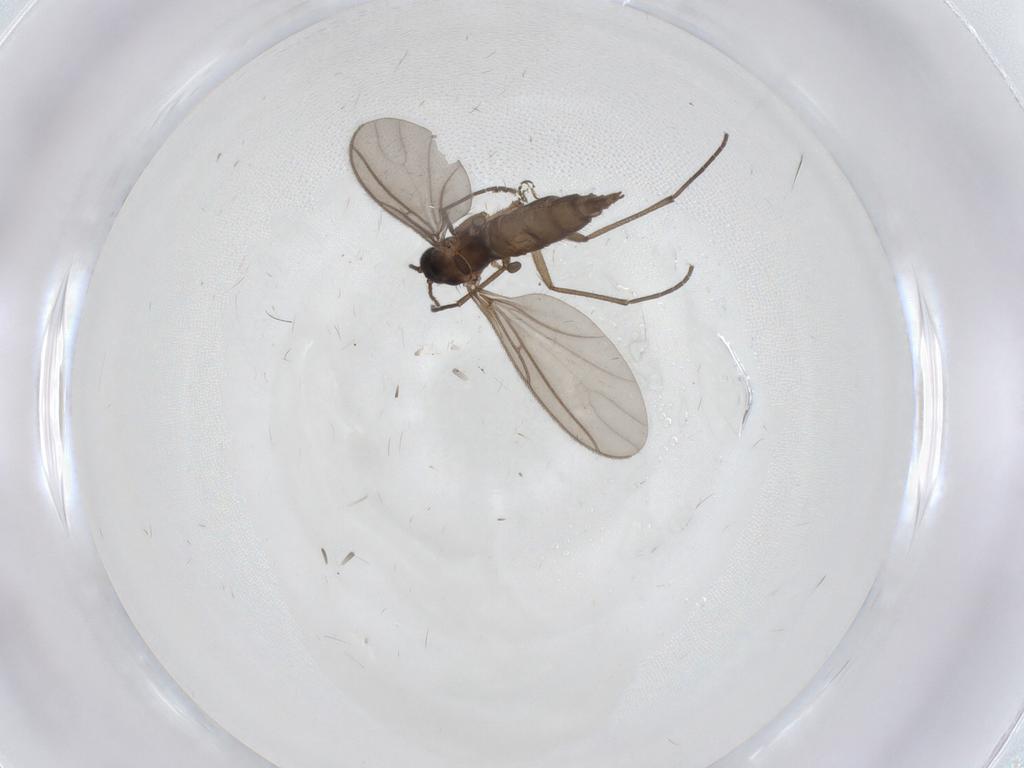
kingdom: Animalia
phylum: Arthropoda
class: Insecta
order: Diptera
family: Sciaridae
